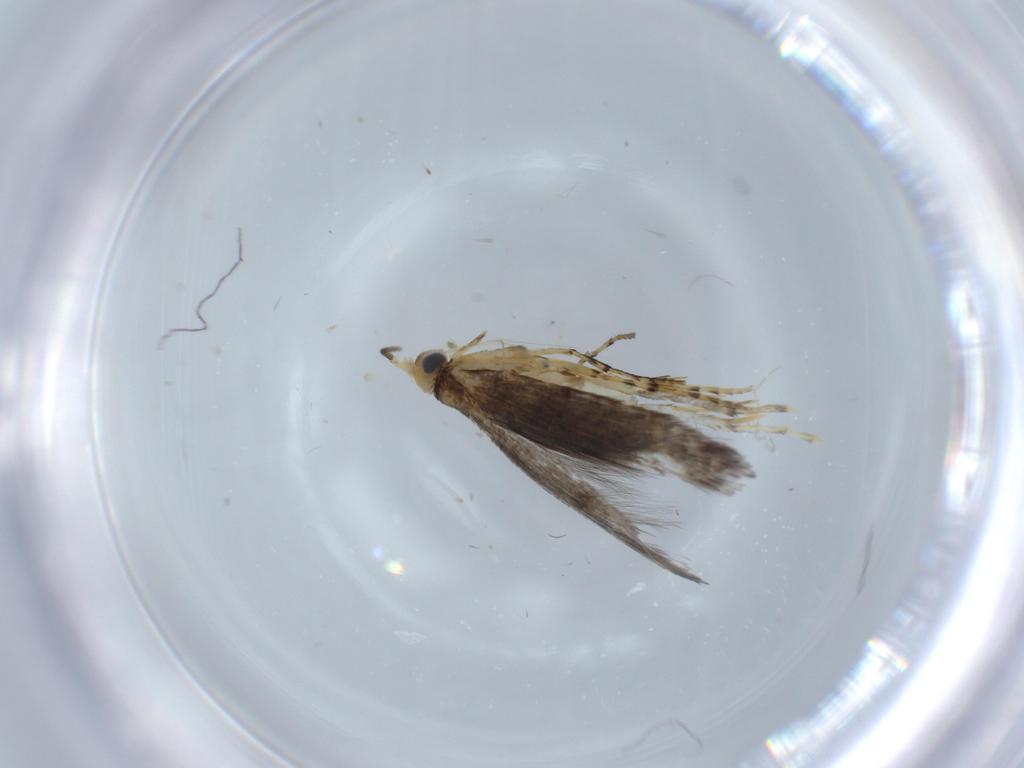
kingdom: Animalia
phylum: Arthropoda
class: Insecta
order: Lepidoptera
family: Argyresthiidae
